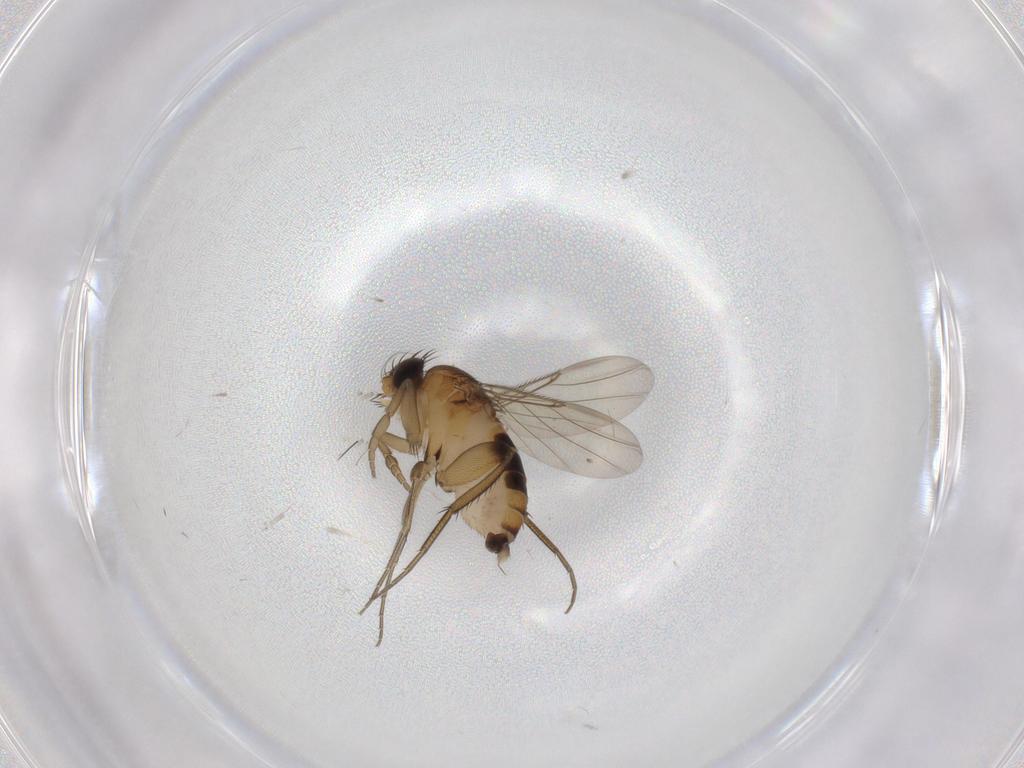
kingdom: Animalia
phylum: Arthropoda
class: Insecta
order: Diptera
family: Phoridae
